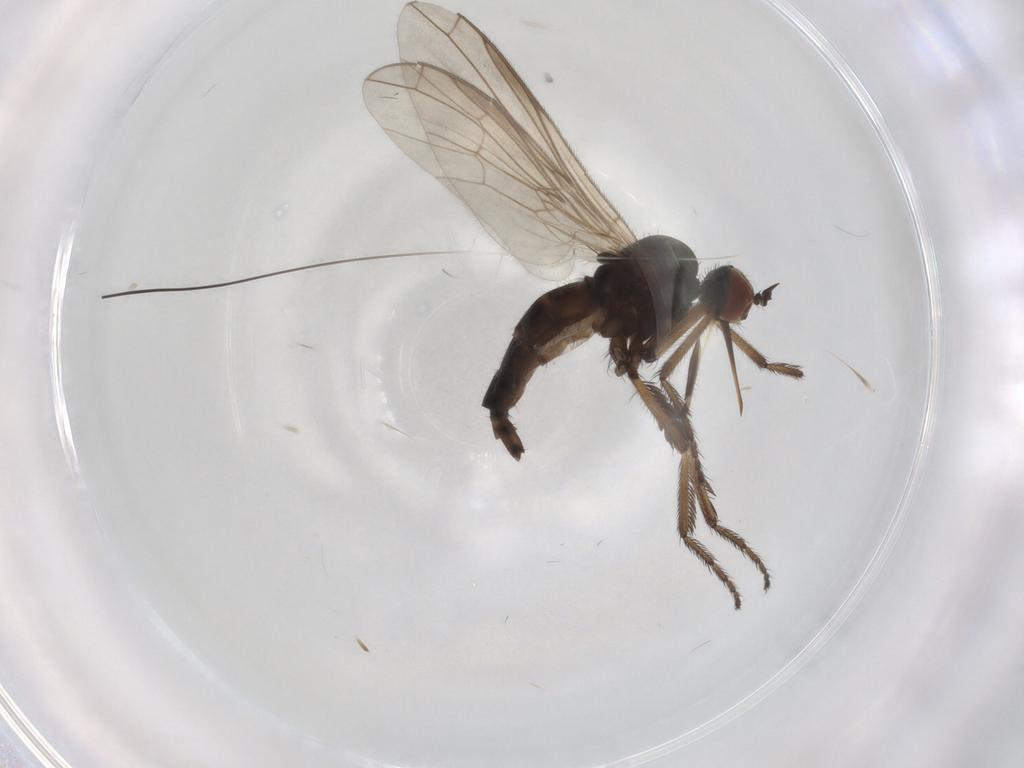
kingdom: Animalia
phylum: Arthropoda
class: Insecta
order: Diptera
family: Empididae
